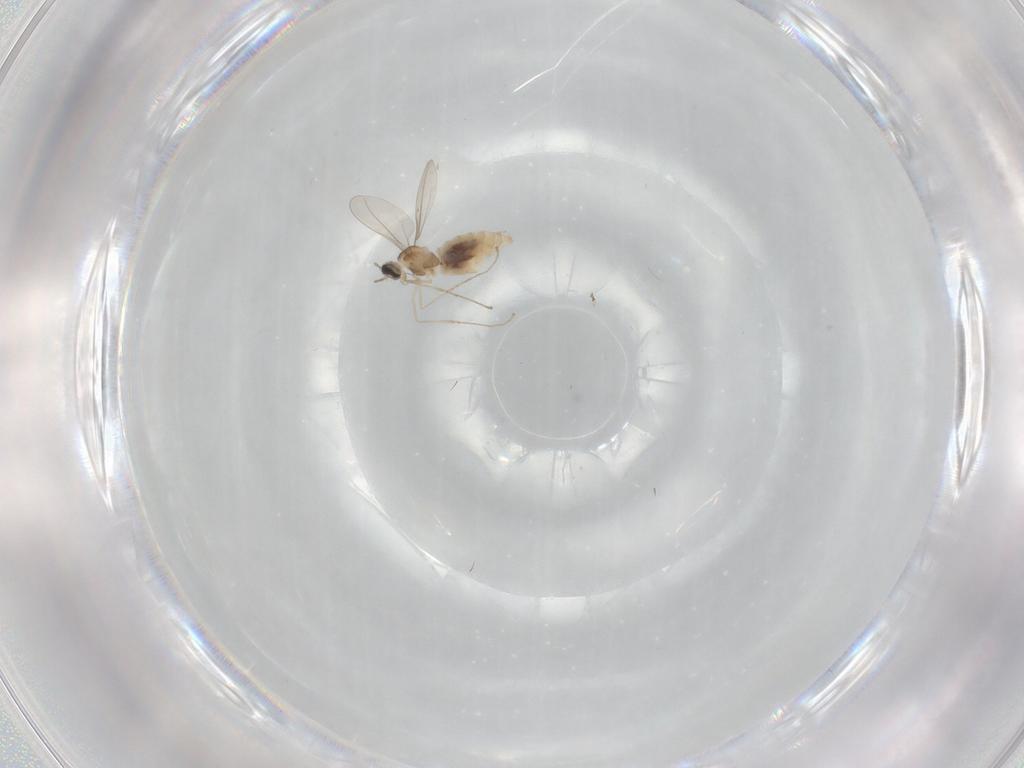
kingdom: Animalia
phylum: Arthropoda
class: Insecta
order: Diptera
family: Cecidomyiidae
